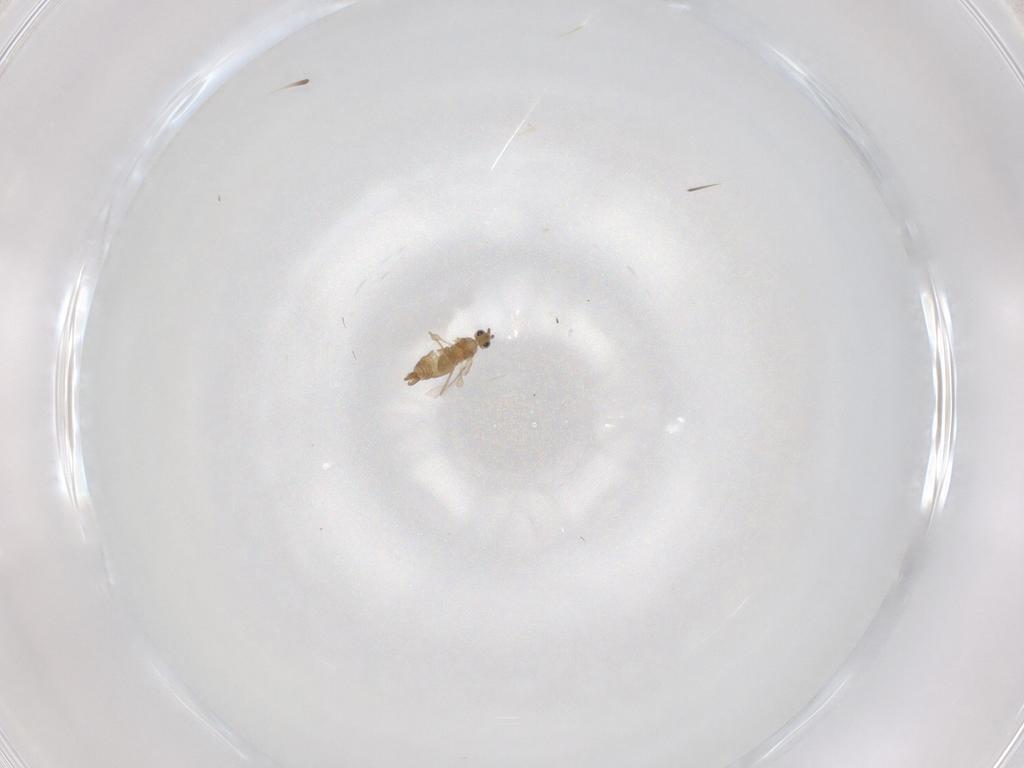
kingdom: Animalia
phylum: Arthropoda
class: Insecta
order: Diptera
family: Cecidomyiidae
